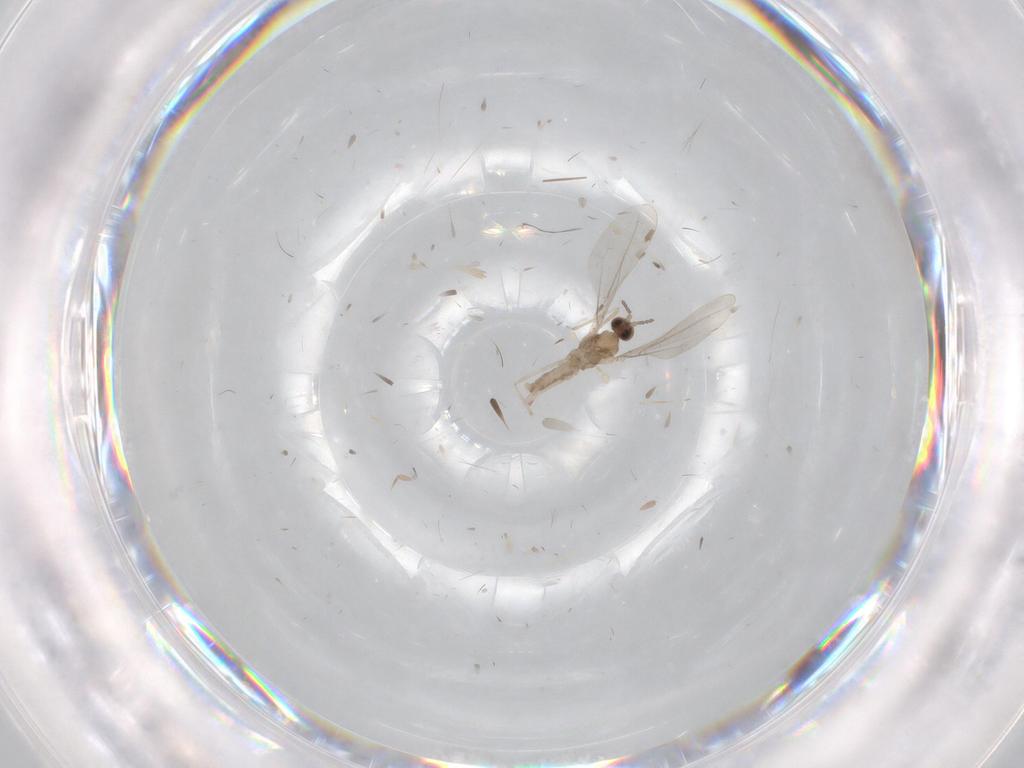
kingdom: Animalia
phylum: Arthropoda
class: Insecta
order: Diptera
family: Cecidomyiidae
